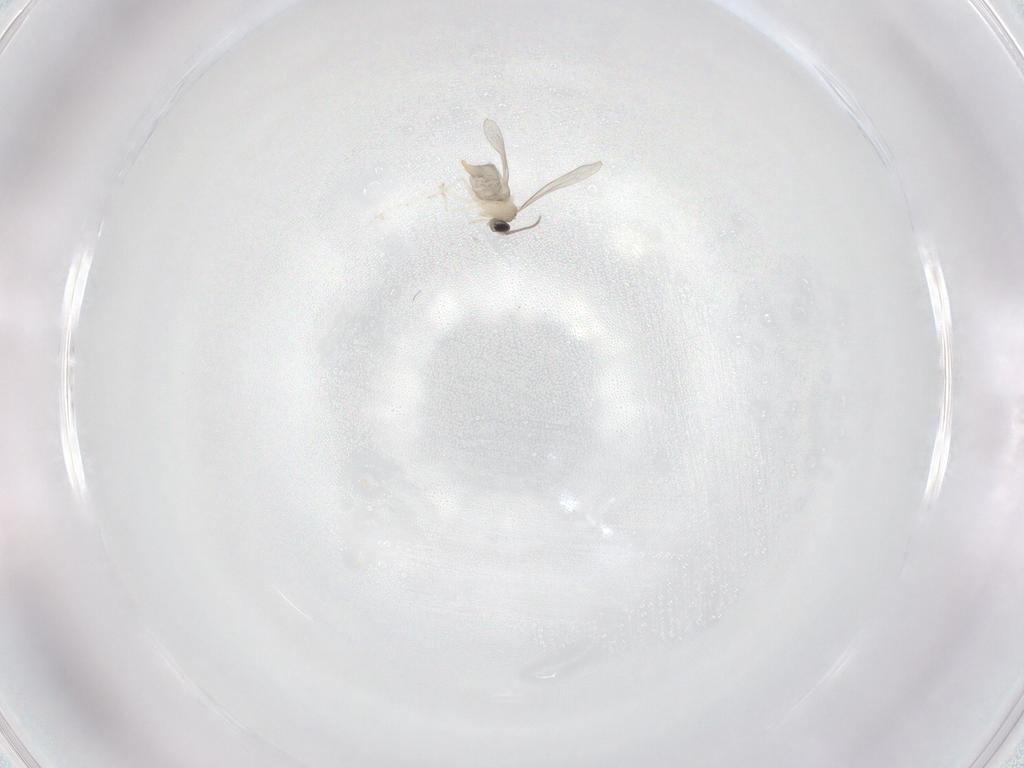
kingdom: Animalia
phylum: Arthropoda
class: Insecta
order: Diptera
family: Cecidomyiidae
